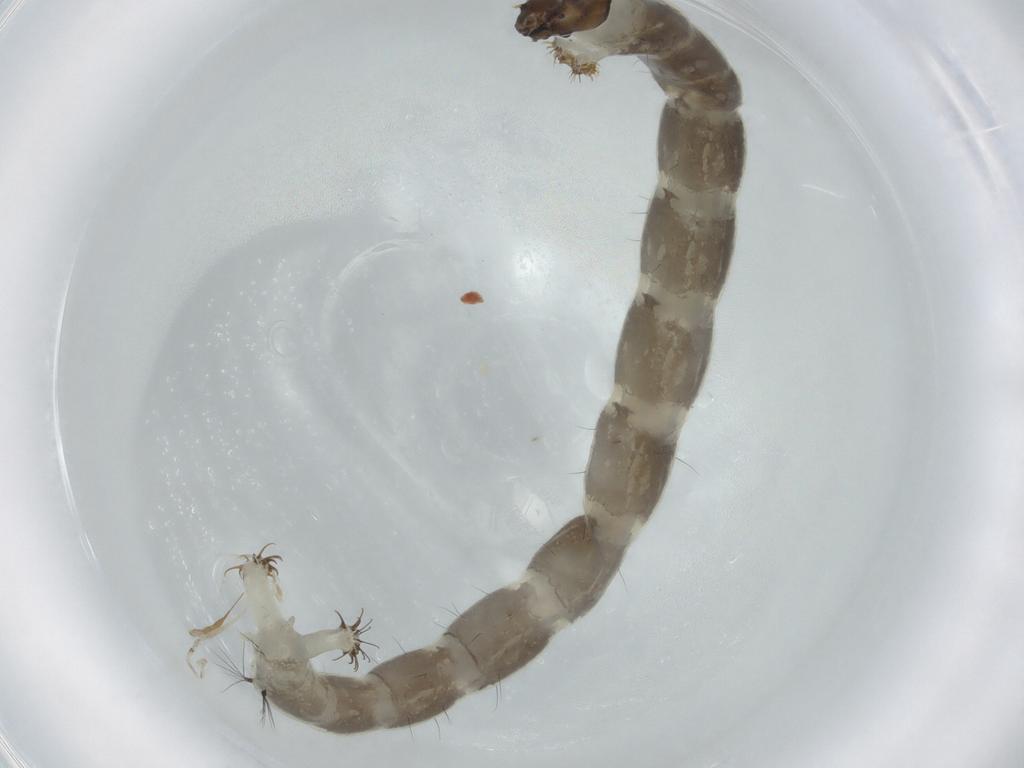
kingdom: Animalia
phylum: Arthropoda
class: Insecta
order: Diptera
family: Chironomidae
